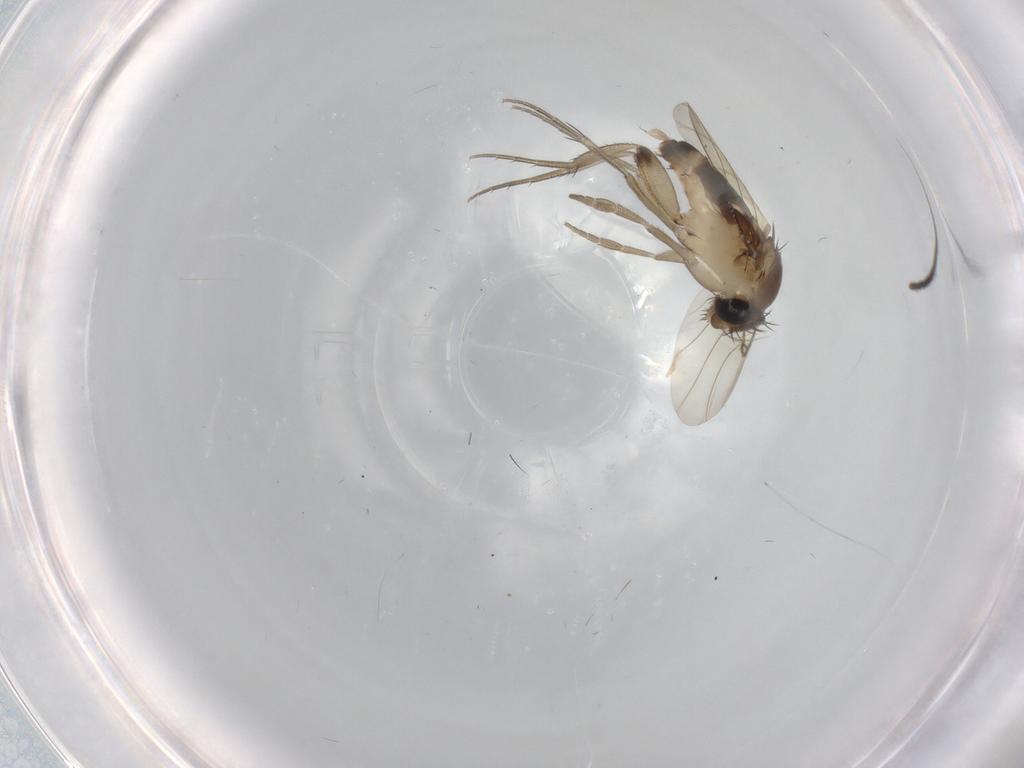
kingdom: Animalia
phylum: Arthropoda
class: Insecta
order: Diptera
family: Phoridae
